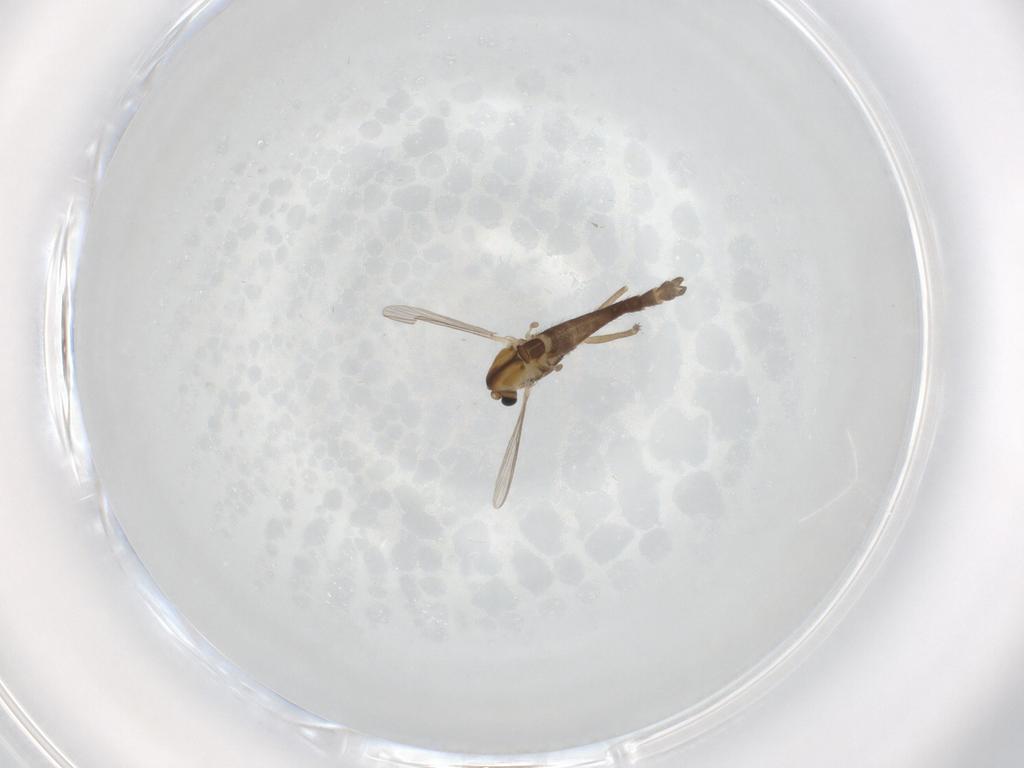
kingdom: Animalia
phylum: Arthropoda
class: Insecta
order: Diptera
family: Chironomidae
